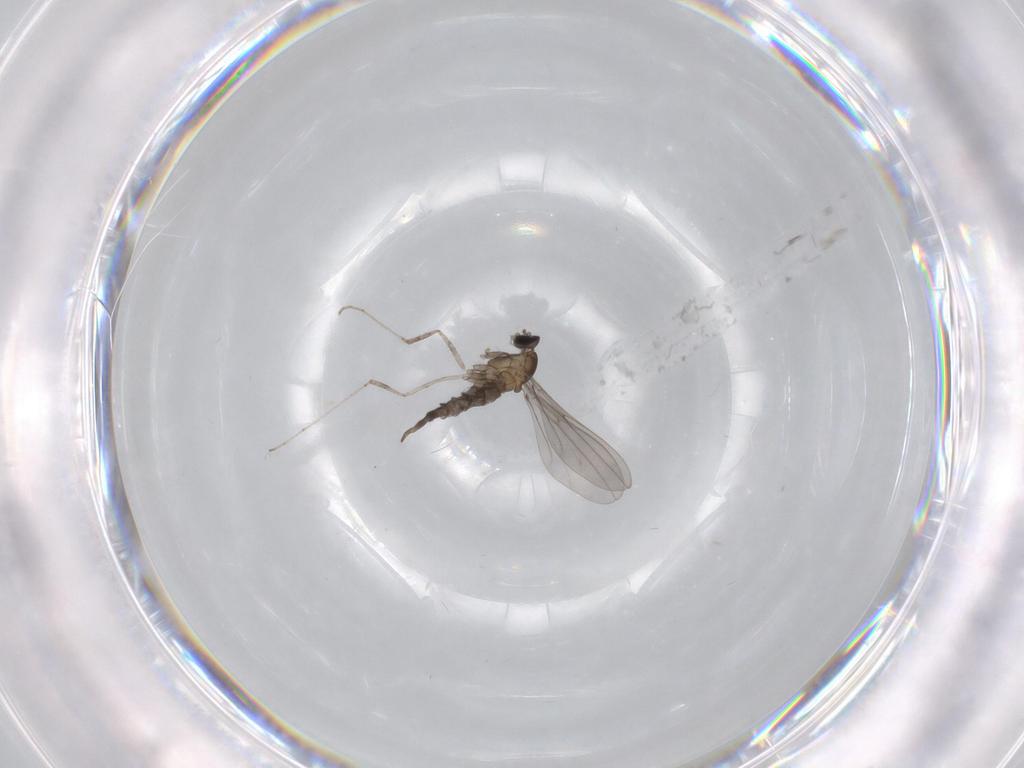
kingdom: Animalia
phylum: Arthropoda
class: Insecta
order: Diptera
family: Cecidomyiidae
